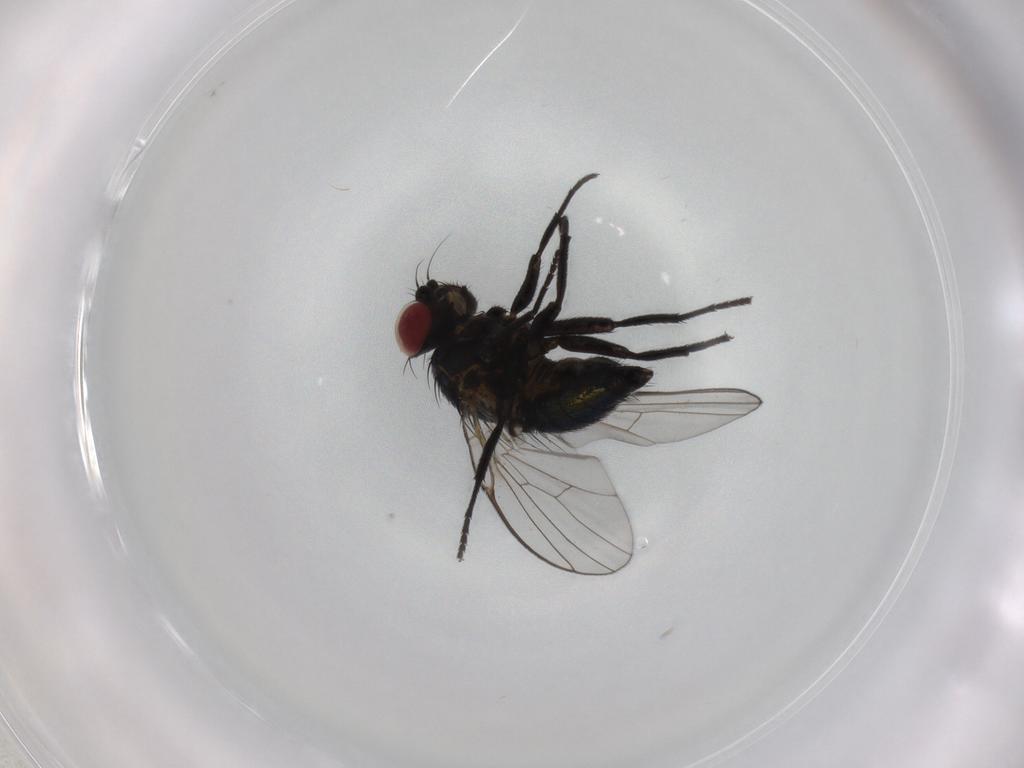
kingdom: Animalia
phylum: Arthropoda
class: Insecta
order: Diptera
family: Agromyzidae
